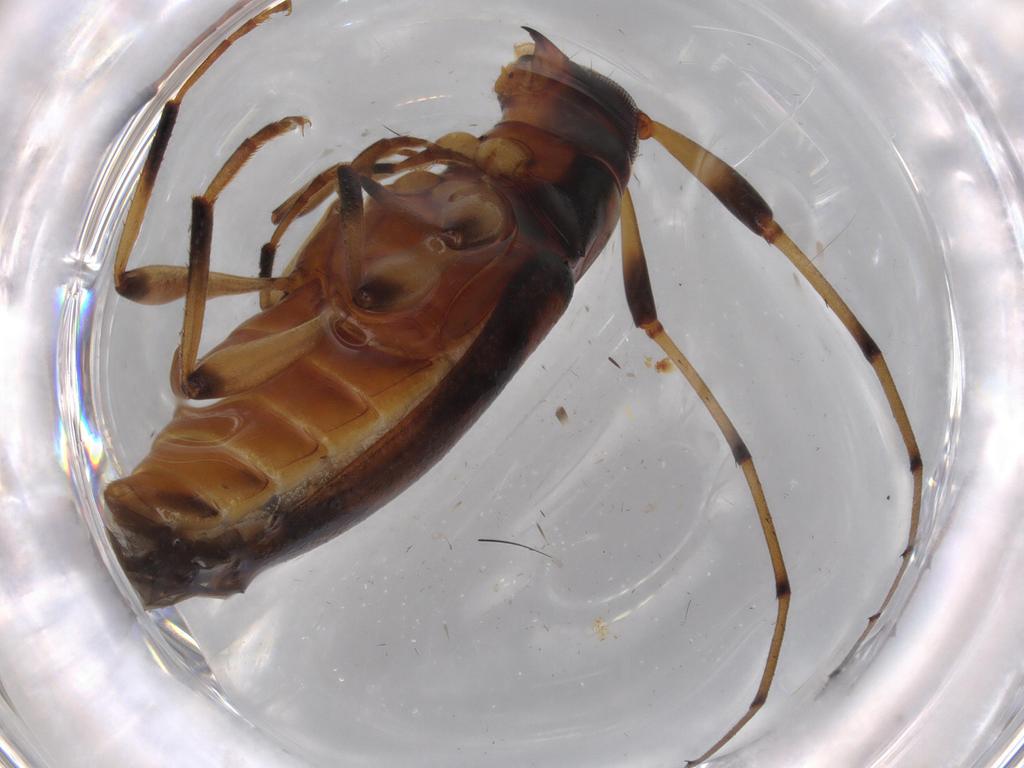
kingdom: Animalia
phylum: Arthropoda
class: Insecta
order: Coleoptera
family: Cerambycidae
